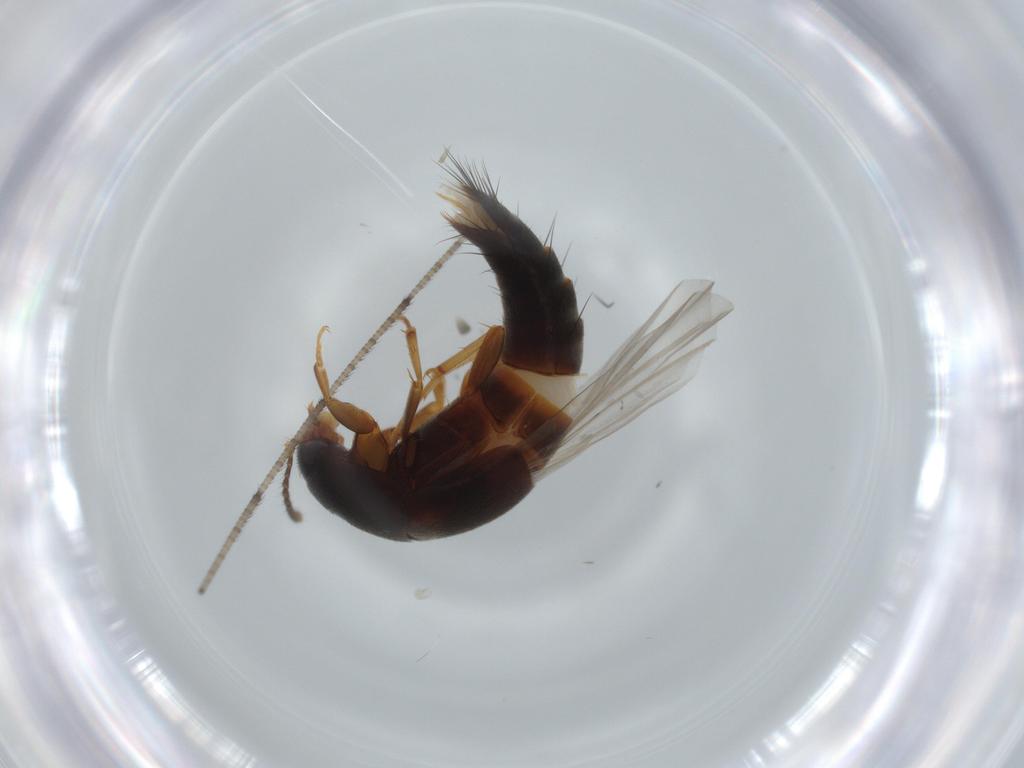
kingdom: Animalia
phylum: Arthropoda
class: Insecta
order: Coleoptera
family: Staphylinidae
